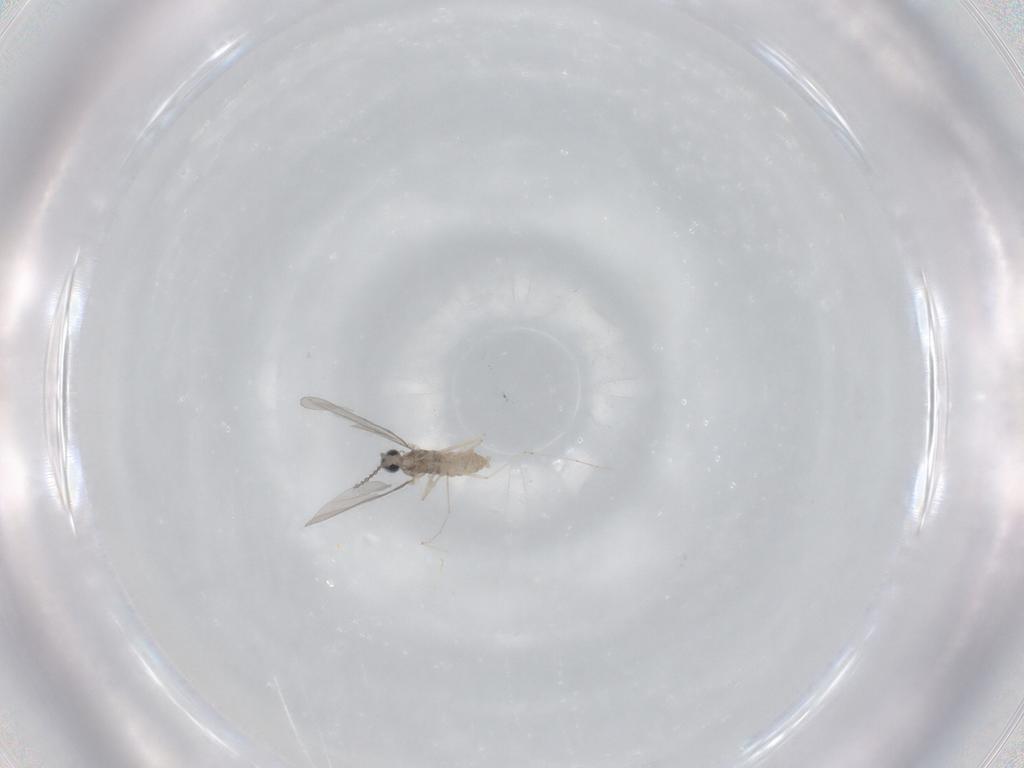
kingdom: Animalia
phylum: Arthropoda
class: Insecta
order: Diptera
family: Cecidomyiidae
